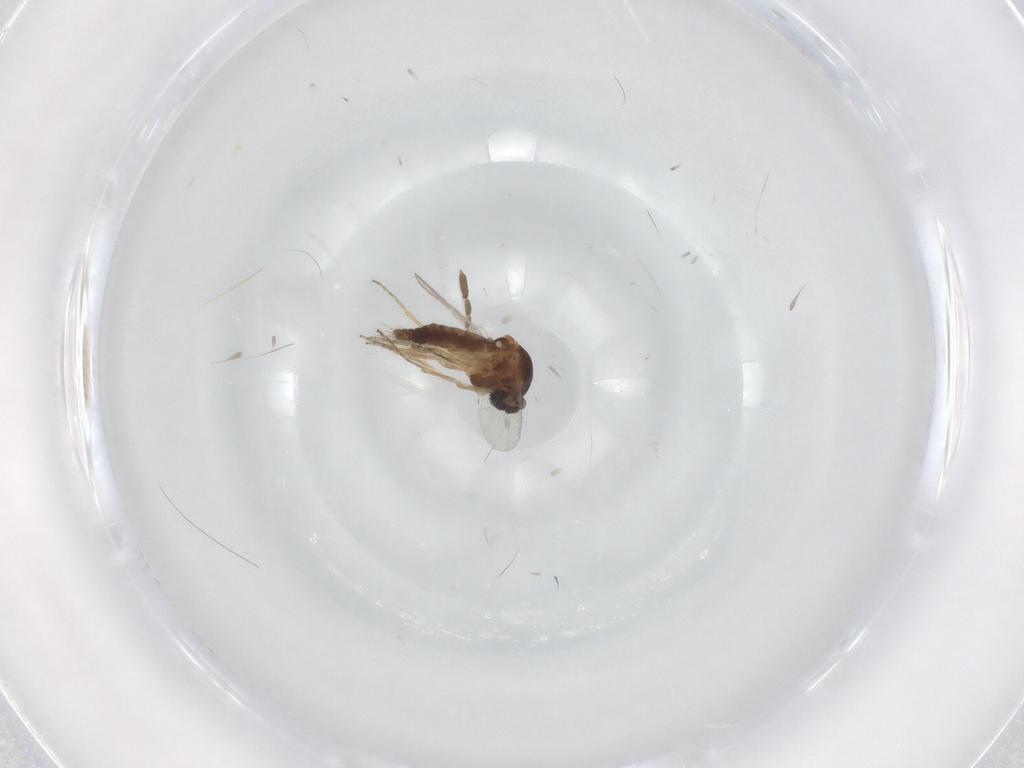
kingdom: Animalia
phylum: Arthropoda
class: Insecta
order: Diptera
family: Ceratopogonidae
